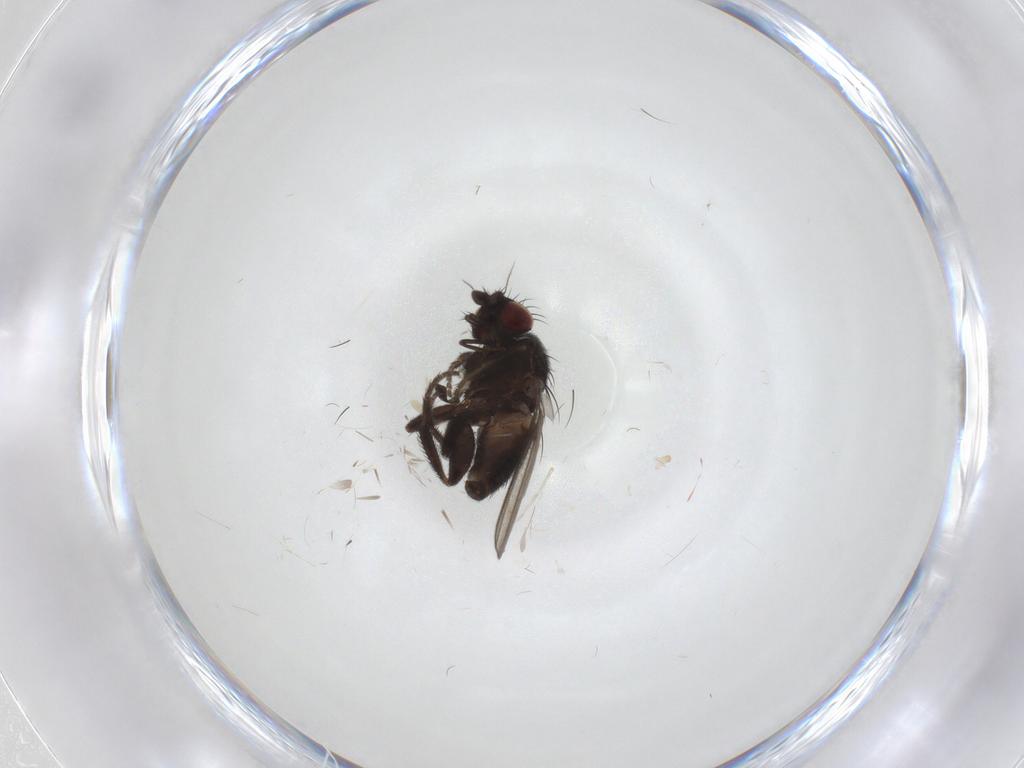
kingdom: Animalia
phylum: Arthropoda
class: Insecta
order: Diptera
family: Milichiidae
